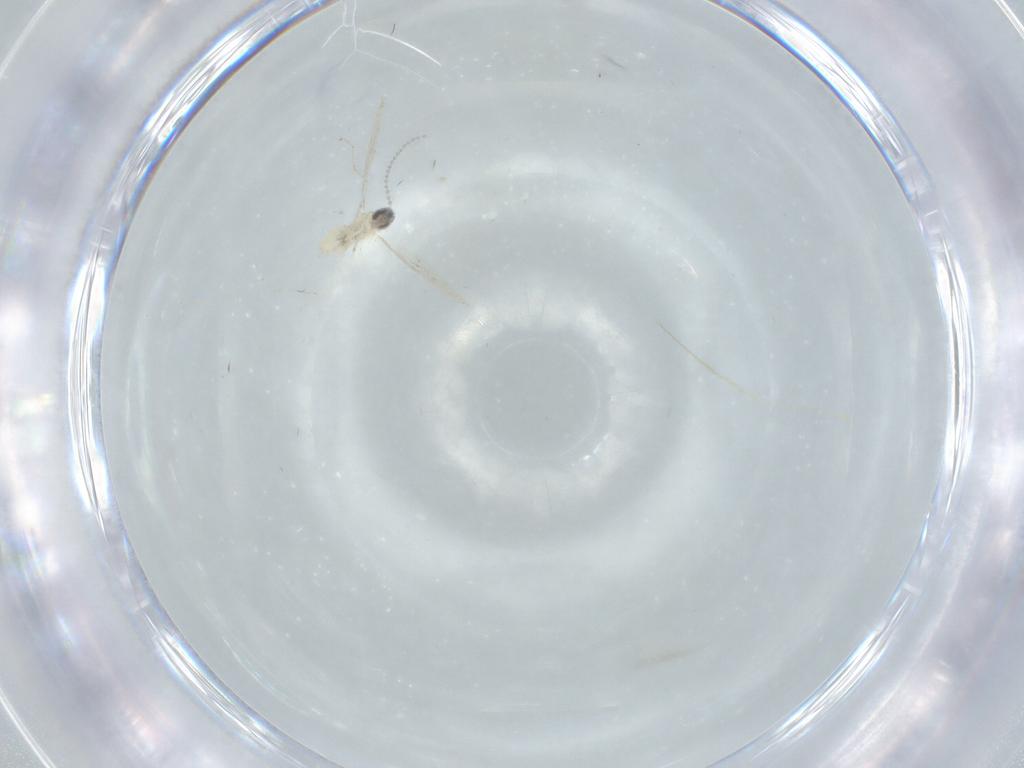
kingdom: Animalia
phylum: Arthropoda
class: Insecta
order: Diptera
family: Cecidomyiidae
